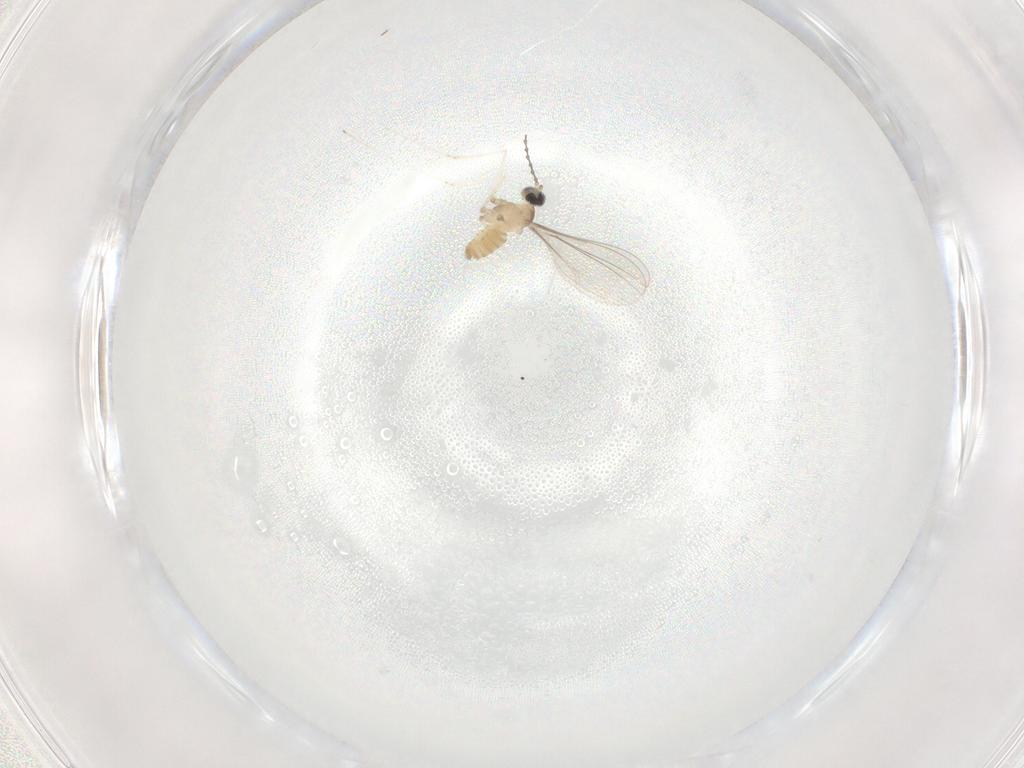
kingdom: Animalia
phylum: Arthropoda
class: Insecta
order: Diptera
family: Cecidomyiidae
